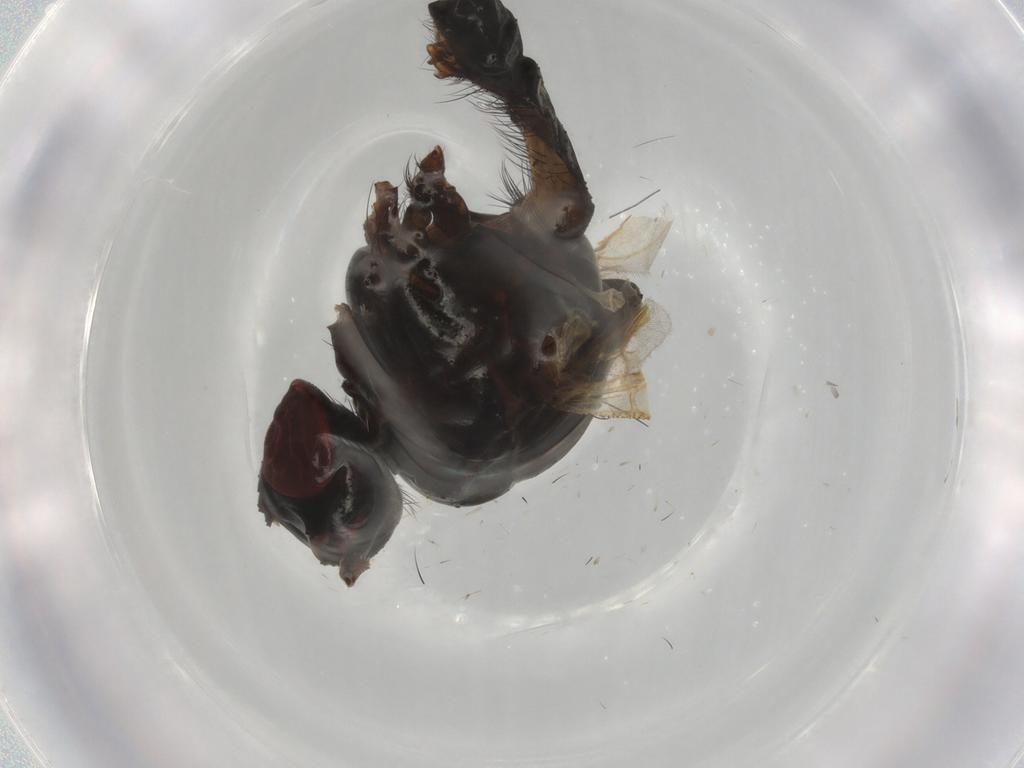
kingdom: Animalia
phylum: Arthropoda
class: Insecta
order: Diptera
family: Anthomyiidae
